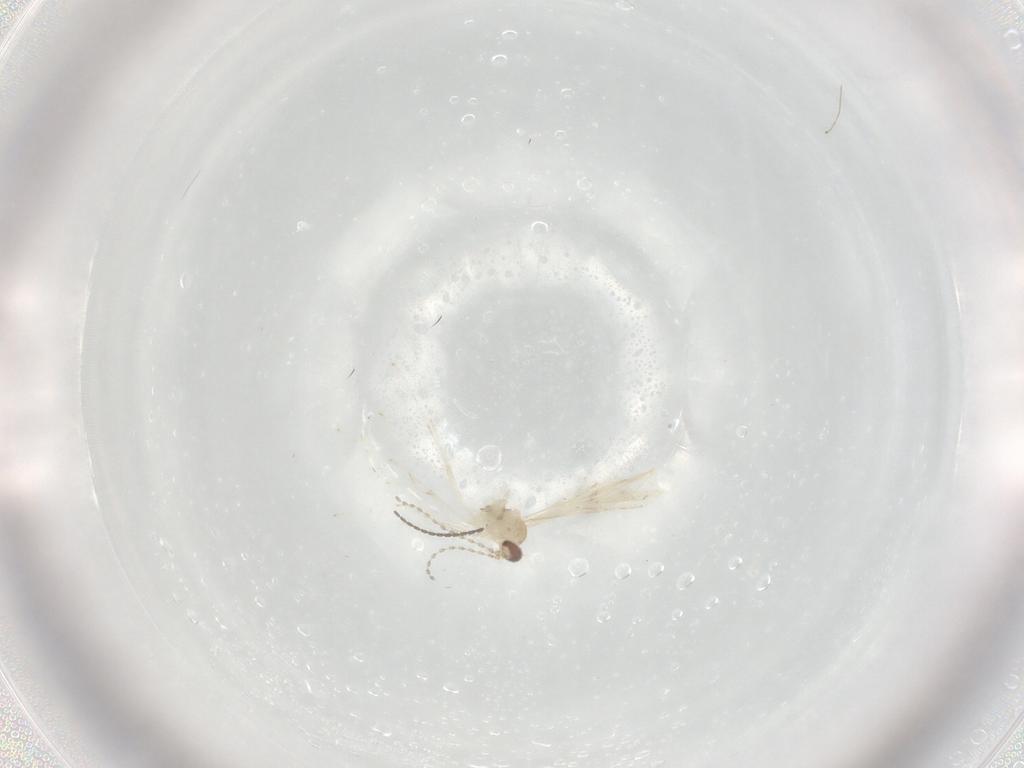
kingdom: Animalia
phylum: Arthropoda
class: Insecta
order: Diptera
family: Cecidomyiidae
